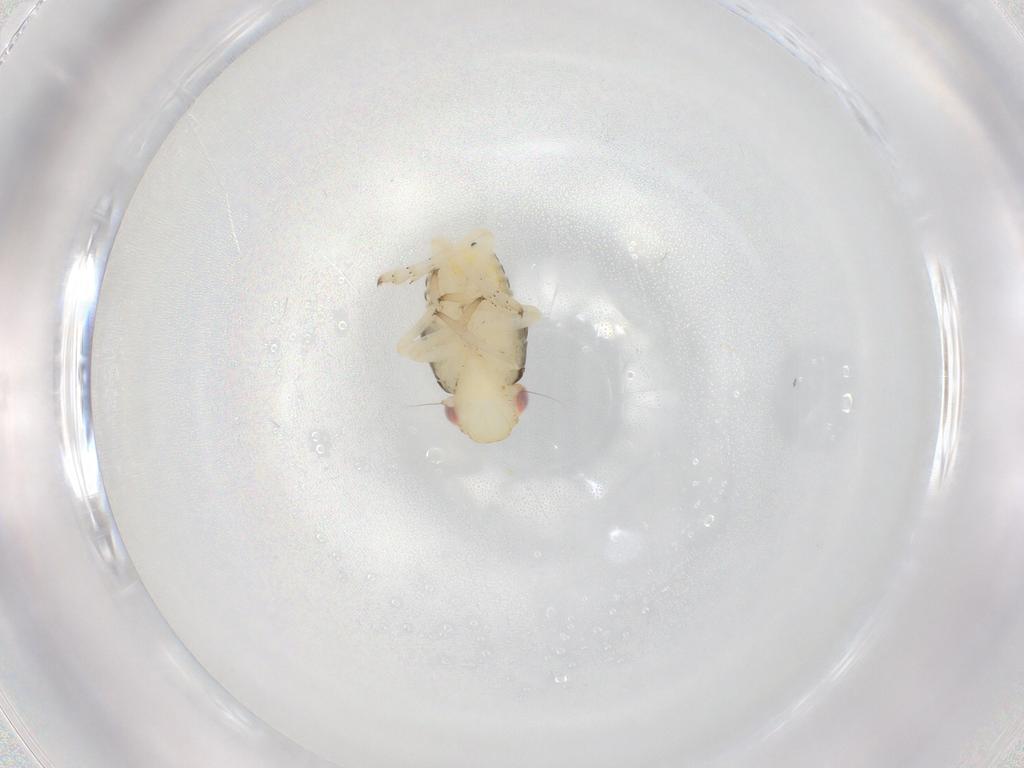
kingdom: Animalia
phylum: Arthropoda
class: Insecta
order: Hemiptera
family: Caliscelidae
